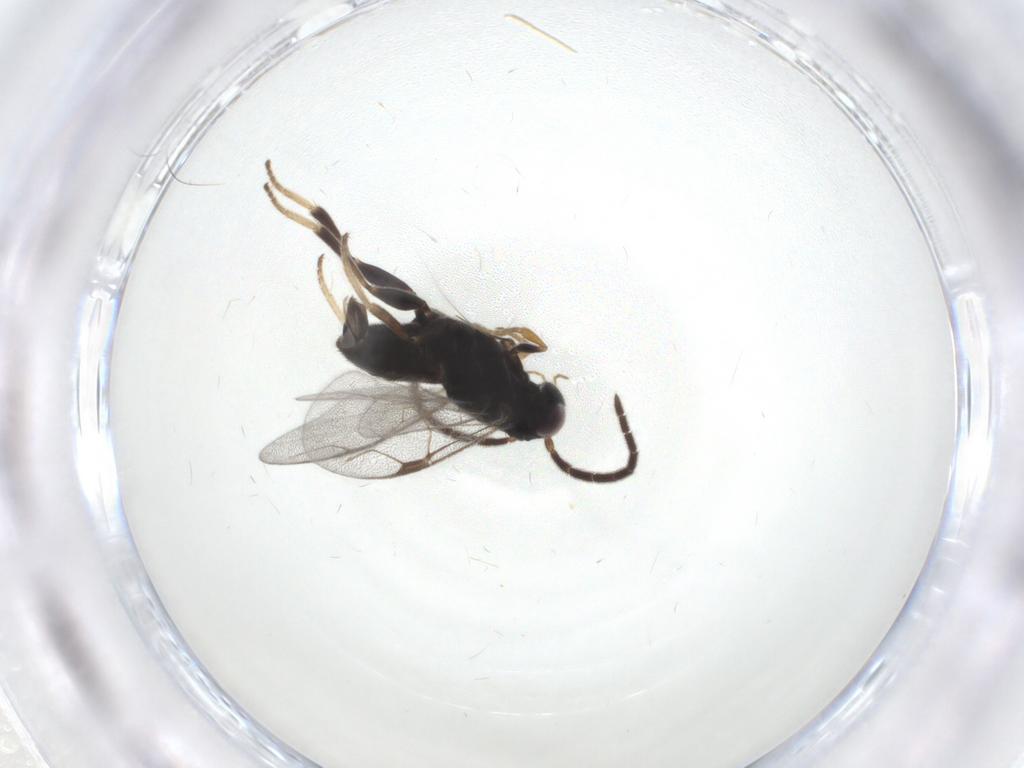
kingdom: Animalia
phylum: Arthropoda
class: Insecta
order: Hymenoptera
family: Dryinidae
